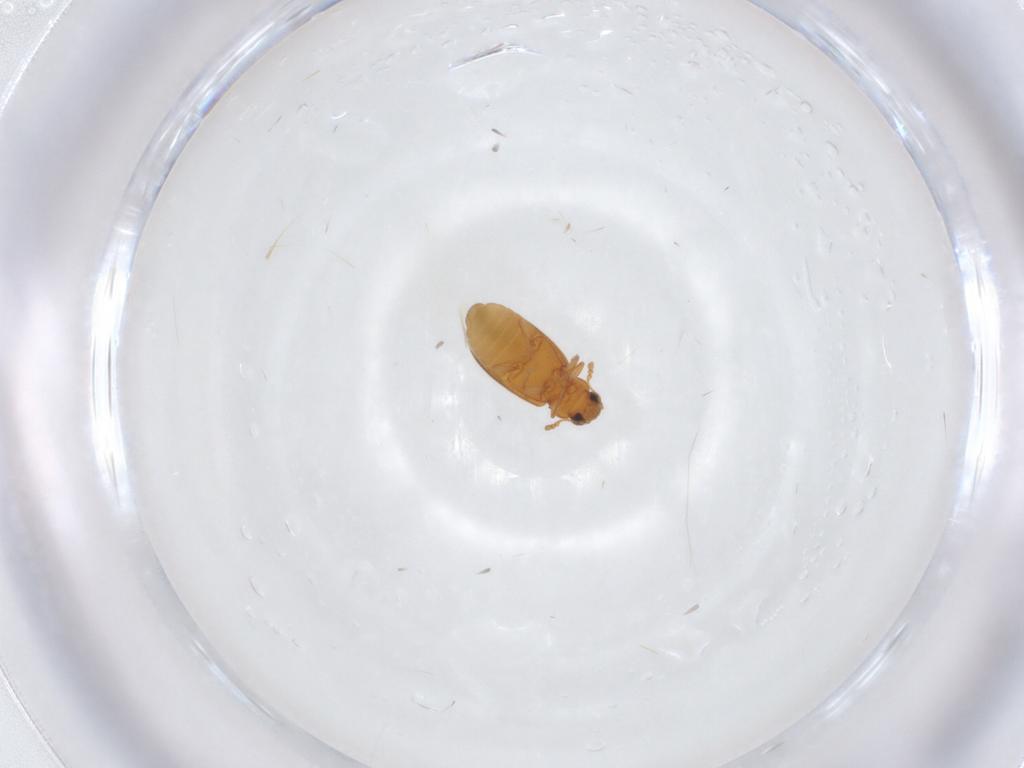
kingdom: Animalia
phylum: Arthropoda
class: Insecta
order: Coleoptera
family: Latridiidae
